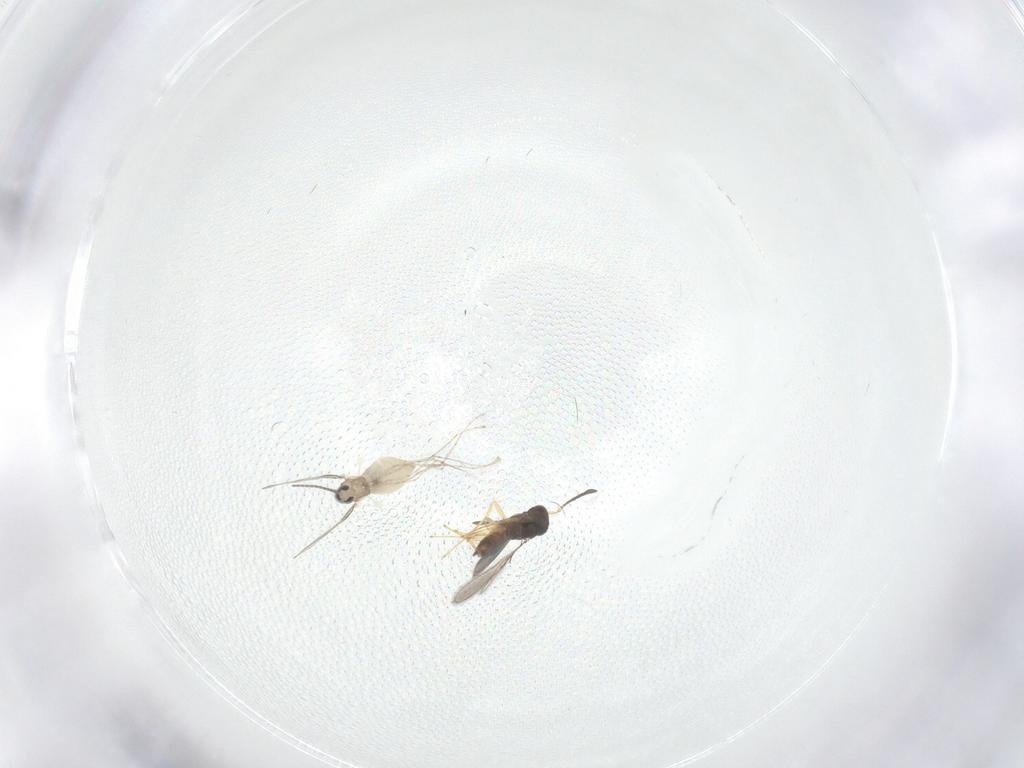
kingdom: Animalia
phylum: Arthropoda
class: Insecta
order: Diptera
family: Cecidomyiidae
